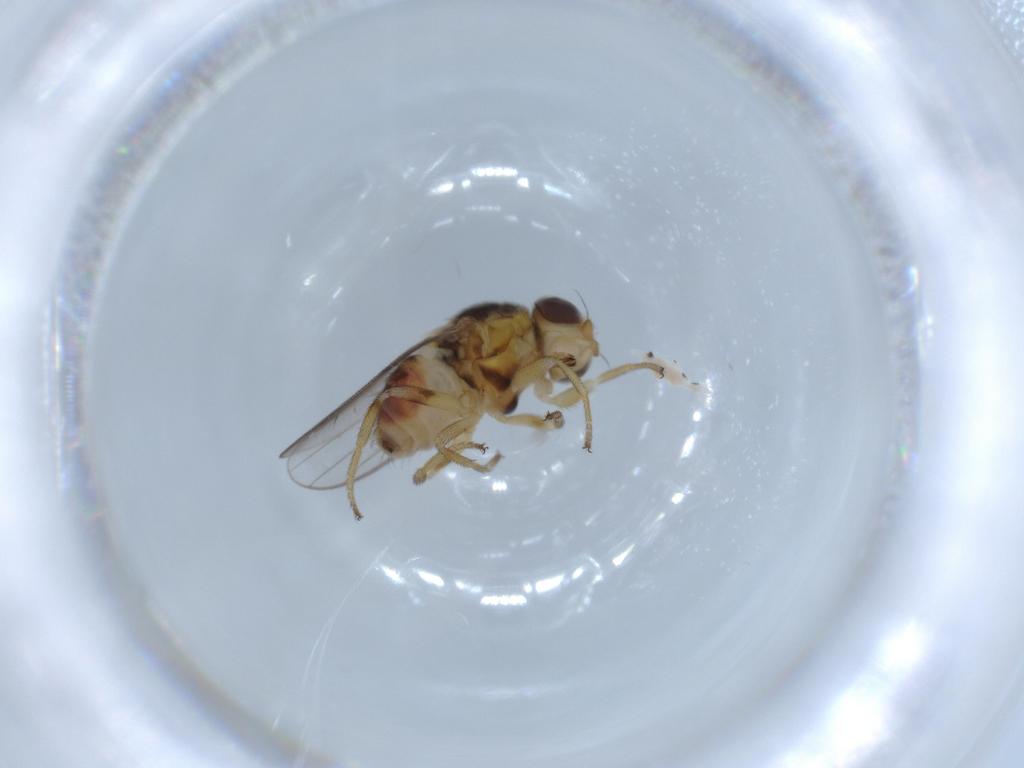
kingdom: Animalia
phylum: Arthropoda
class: Insecta
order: Diptera
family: Chloropidae
